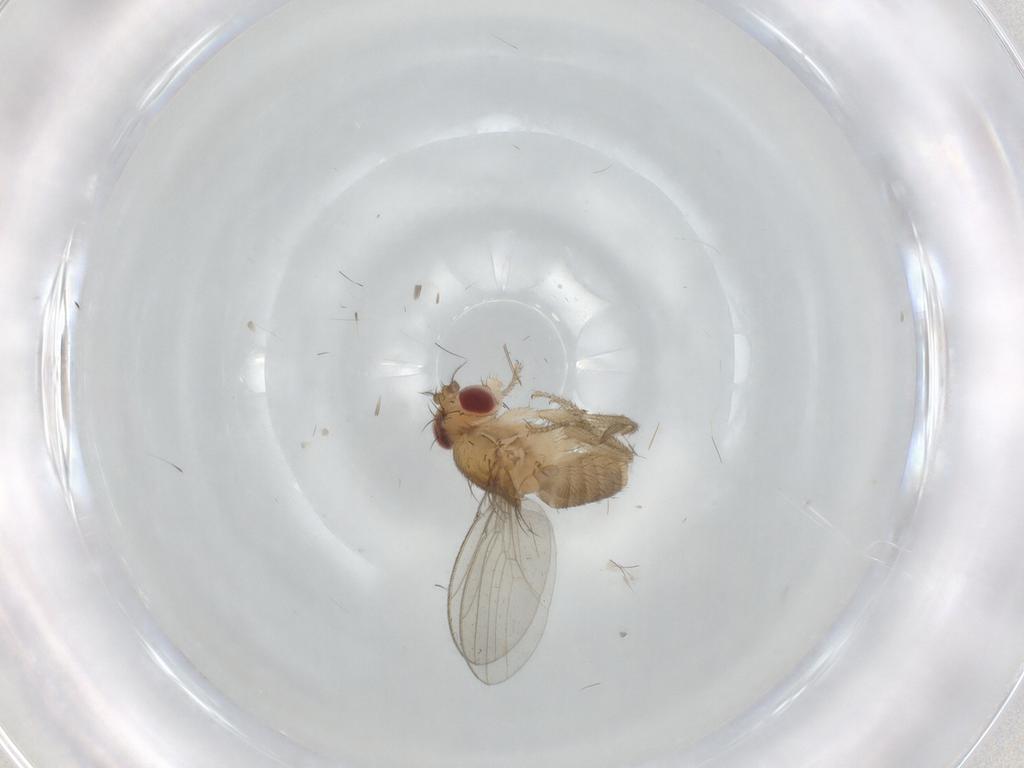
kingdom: Animalia
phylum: Arthropoda
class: Insecta
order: Diptera
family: Drosophilidae
